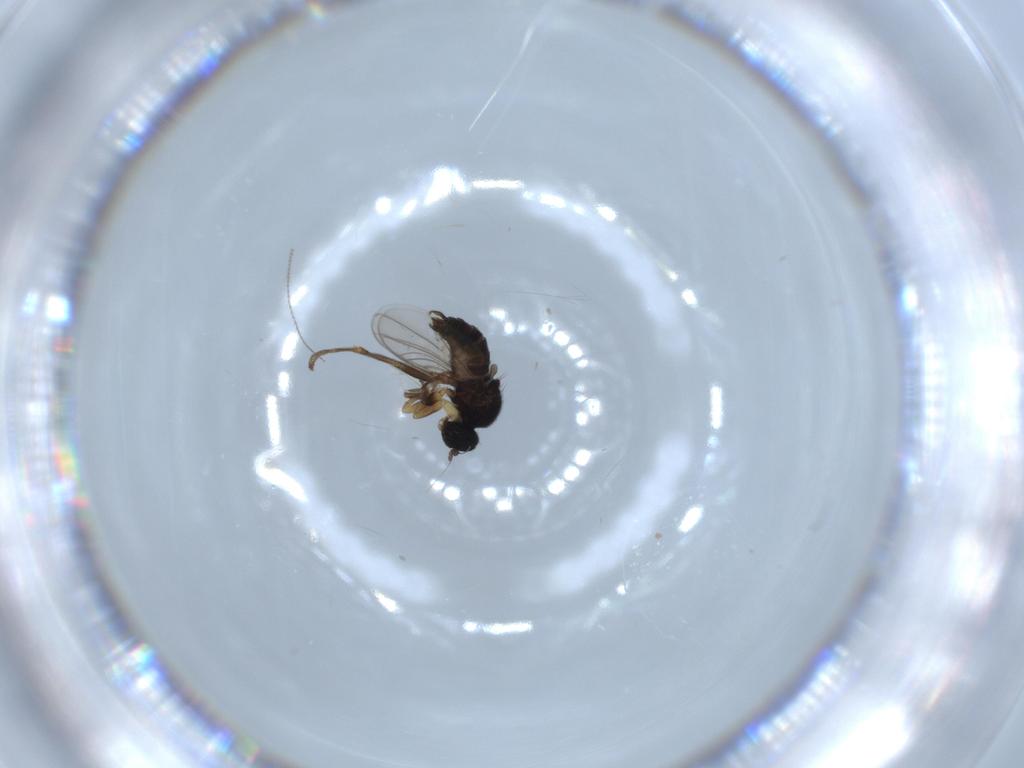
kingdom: Animalia
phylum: Arthropoda
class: Insecta
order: Diptera
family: Hybotidae
